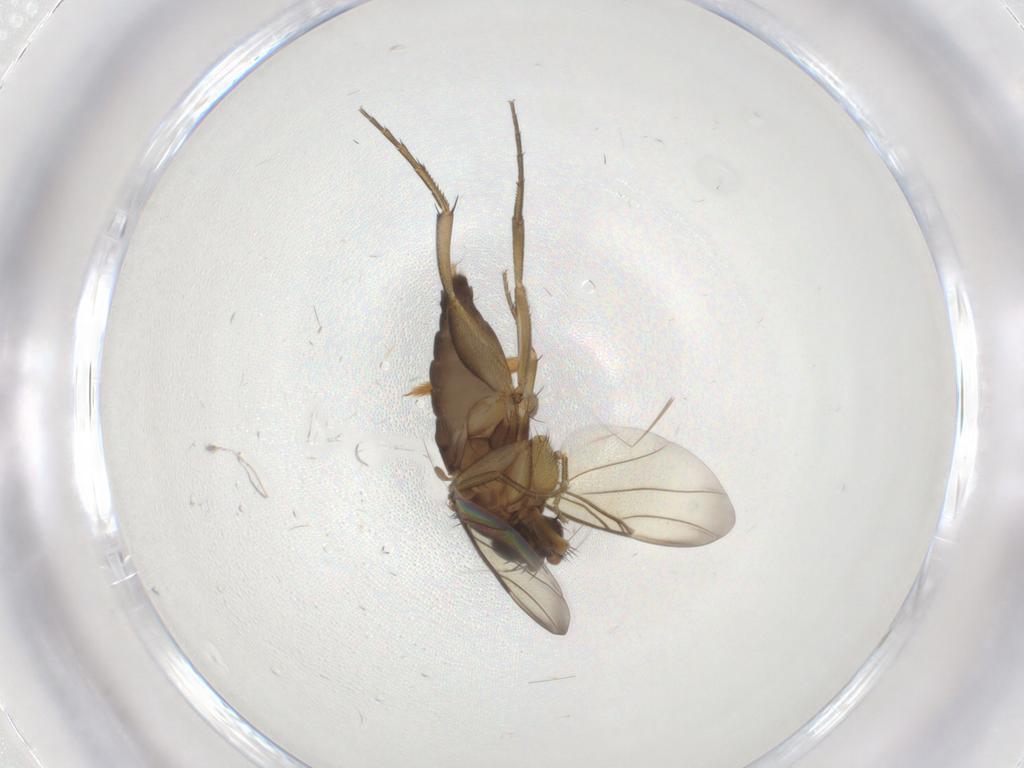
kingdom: Animalia
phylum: Arthropoda
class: Insecta
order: Diptera
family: Phoridae
